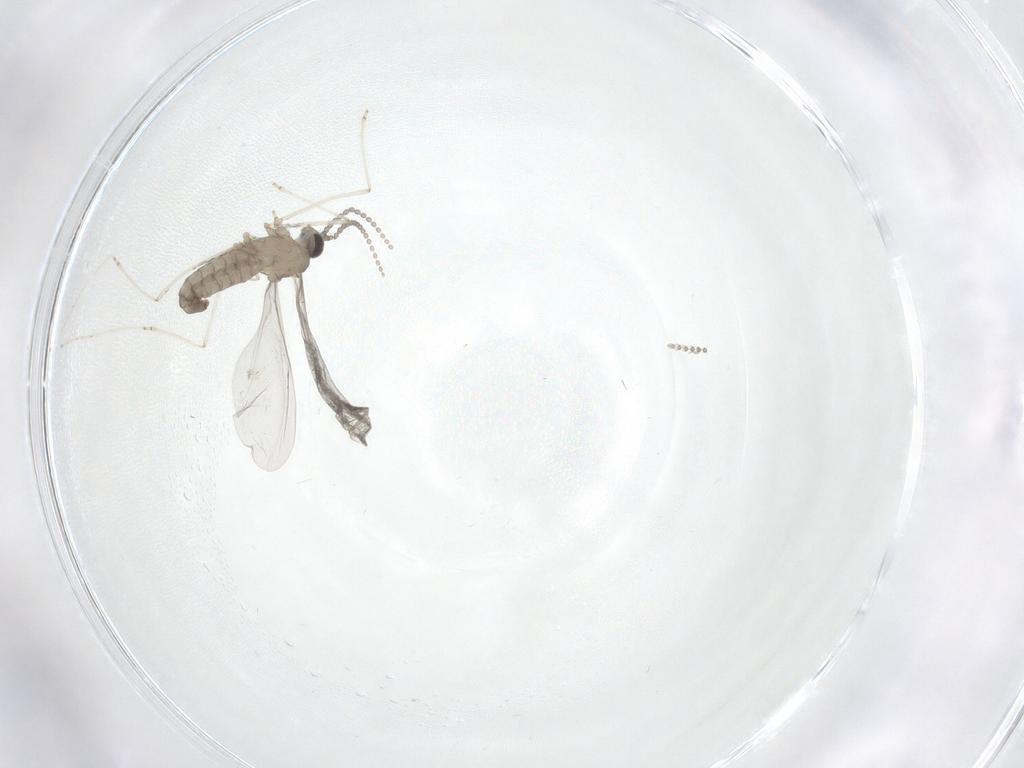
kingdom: Animalia
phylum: Arthropoda
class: Insecta
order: Diptera
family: Cecidomyiidae
